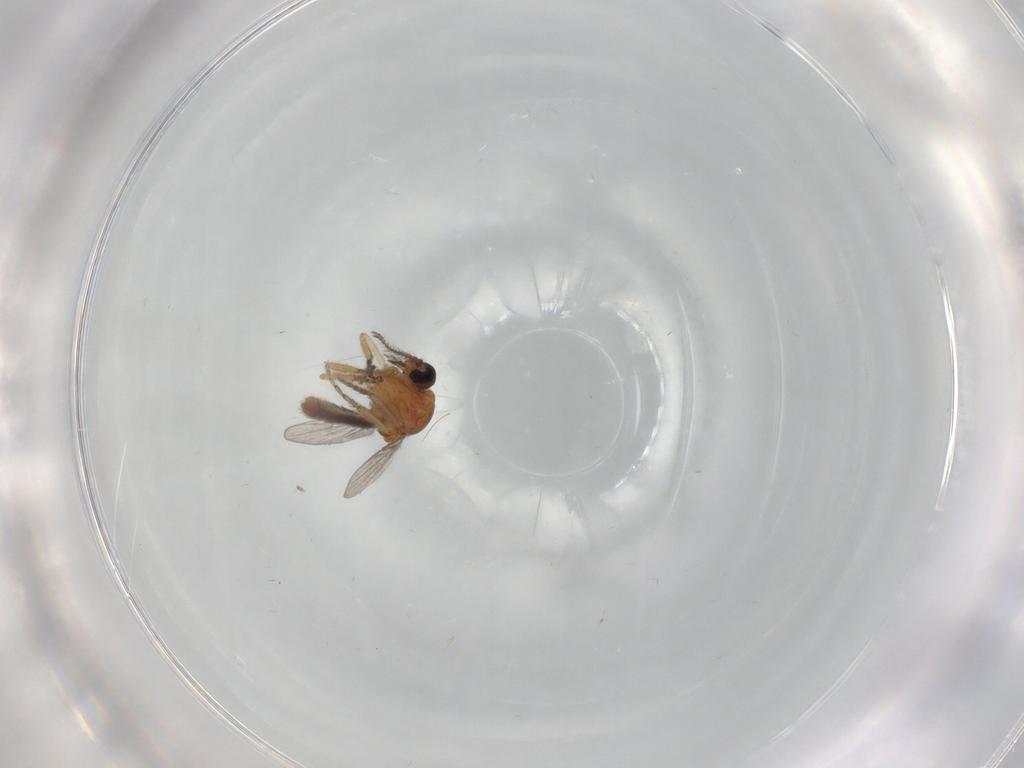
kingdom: Animalia
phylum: Arthropoda
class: Insecta
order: Diptera
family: Ceratopogonidae
